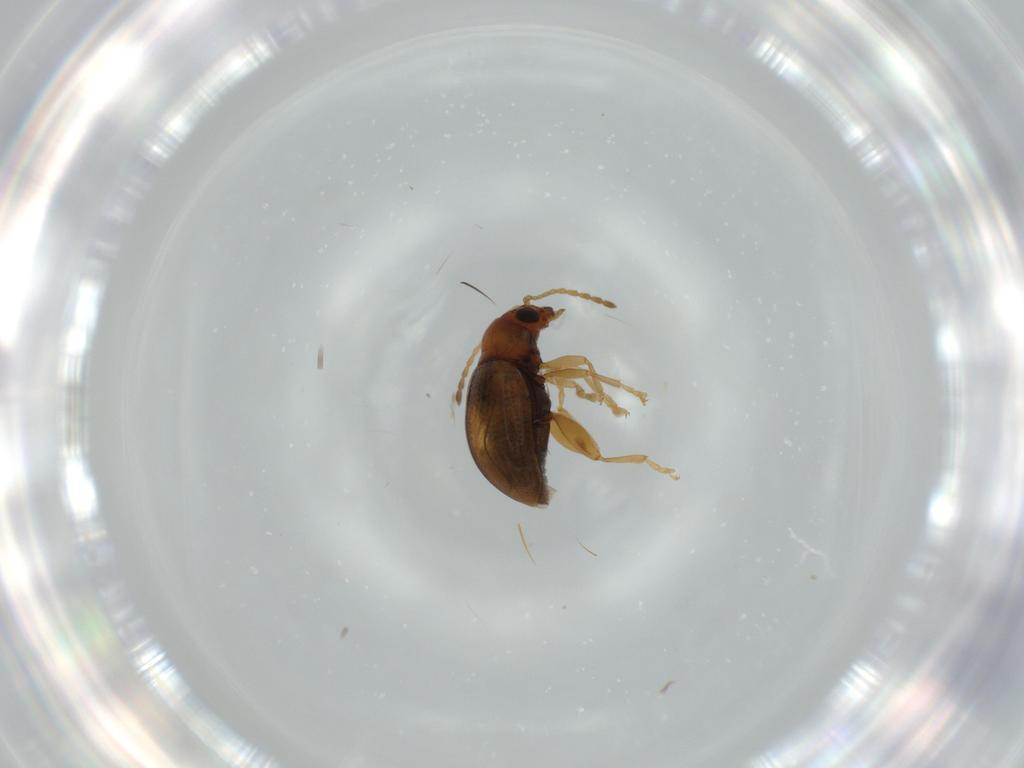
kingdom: Animalia
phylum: Arthropoda
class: Insecta
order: Coleoptera
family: Chrysomelidae
